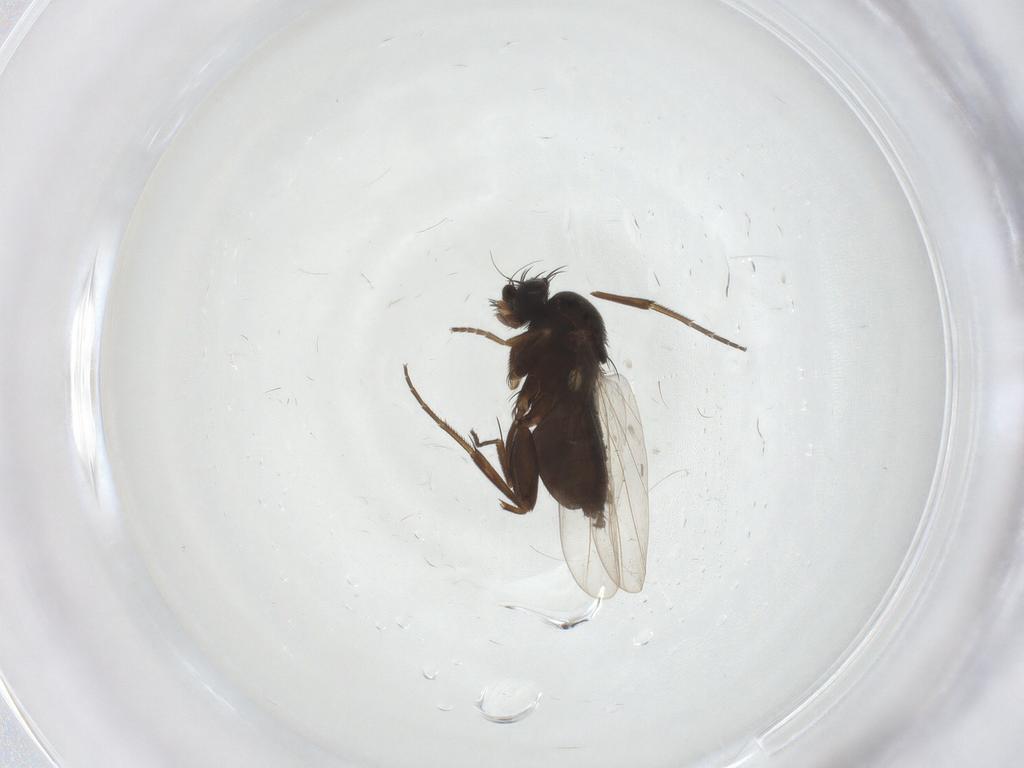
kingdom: Animalia
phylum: Arthropoda
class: Insecta
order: Diptera
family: Phoridae
